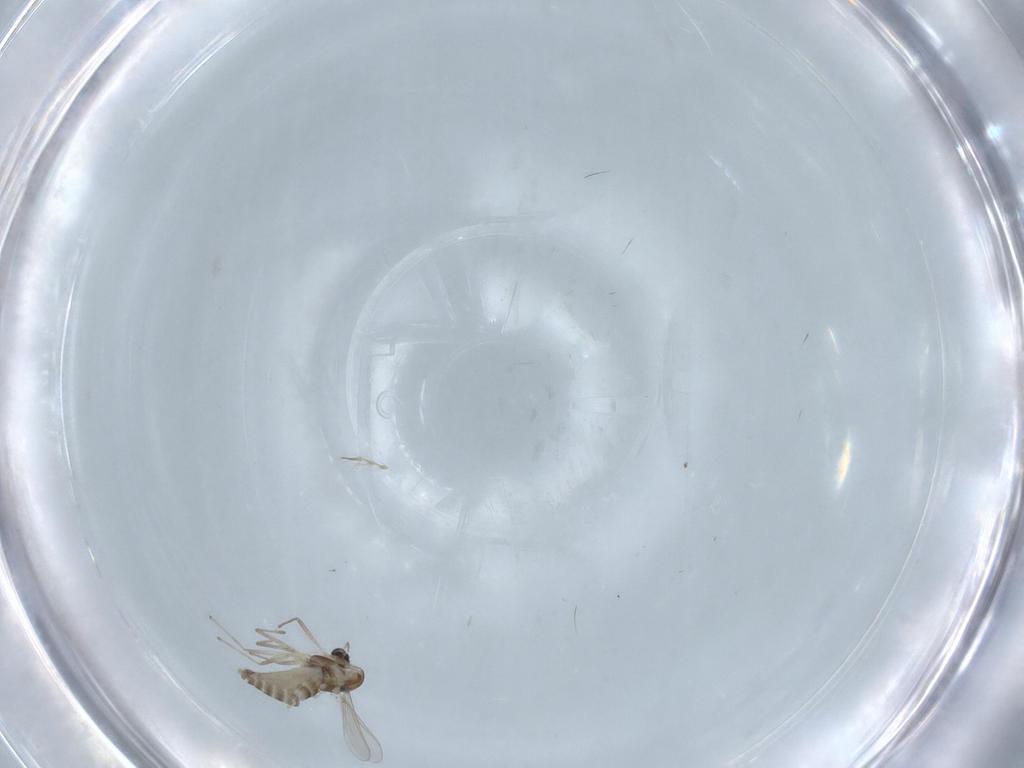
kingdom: Animalia
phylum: Arthropoda
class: Insecta
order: Diptera
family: Chironomidae
